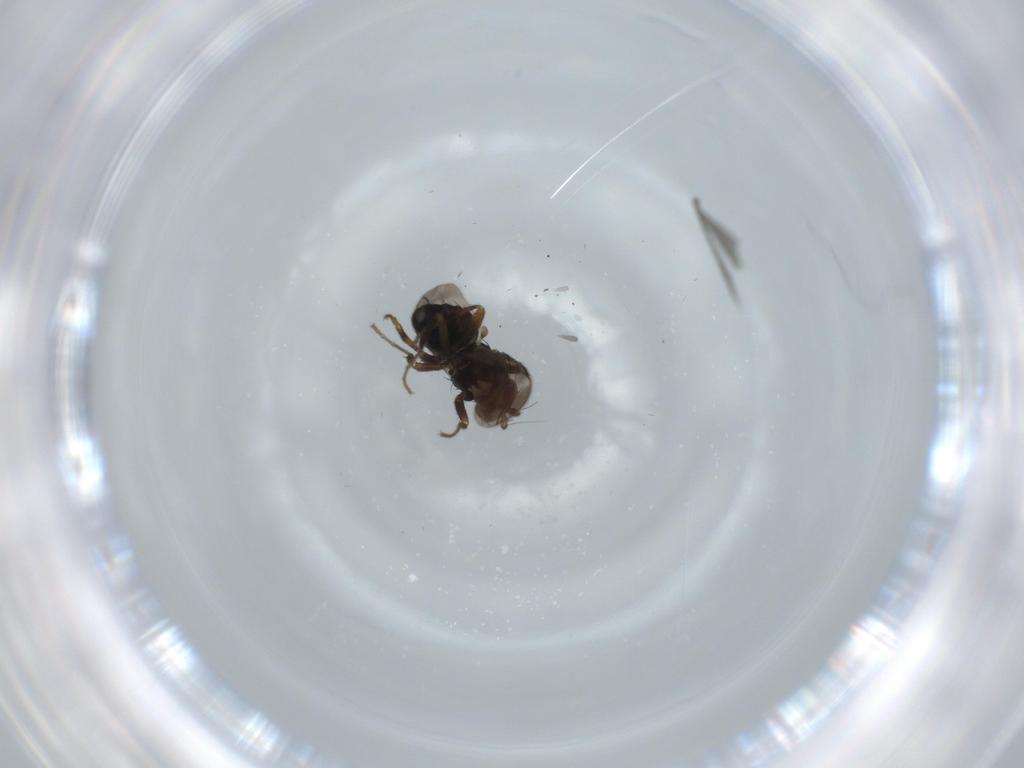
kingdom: Animalia
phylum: Arthropoda
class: Insecta
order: Diptera
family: Sphaeroceridae
